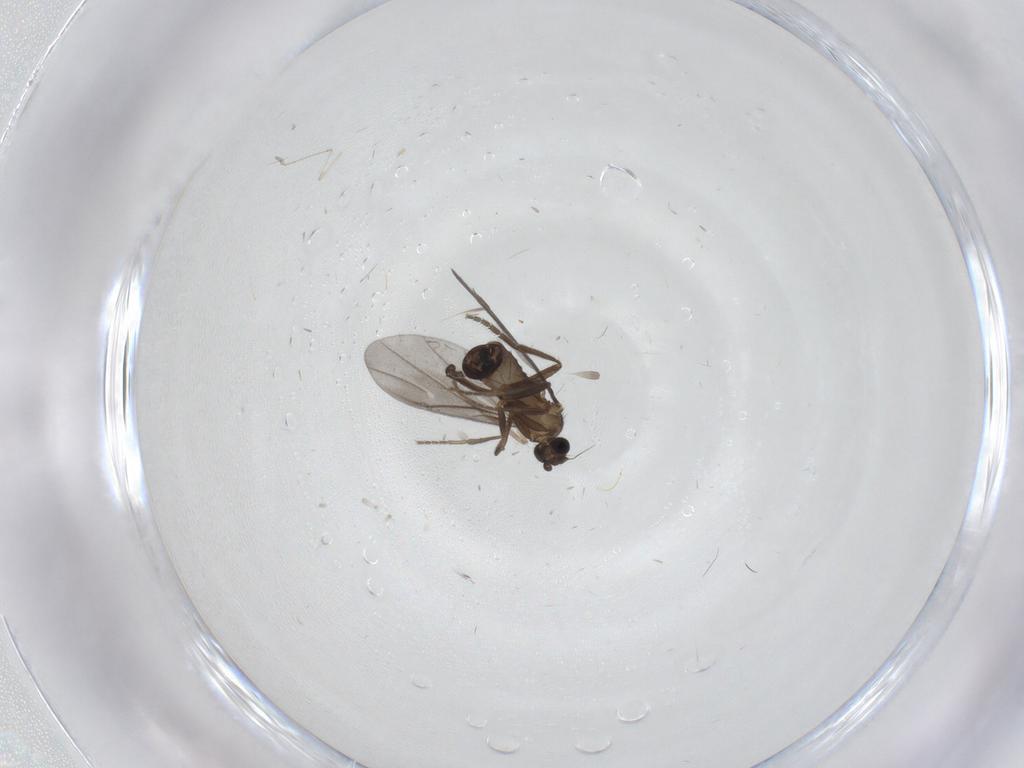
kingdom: Animalia
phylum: Arthropoda
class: Insecta
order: Diptera
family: Phoridae
